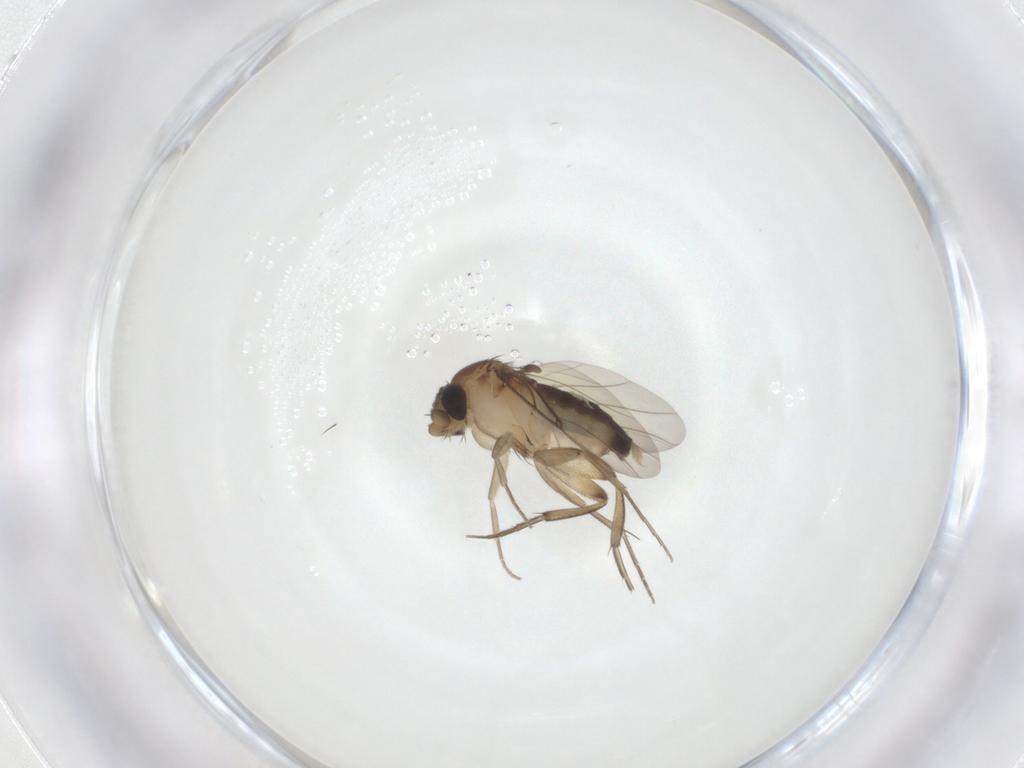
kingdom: Animalia
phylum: Arthropoda
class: Insecta
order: Diptera
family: Phoridae
